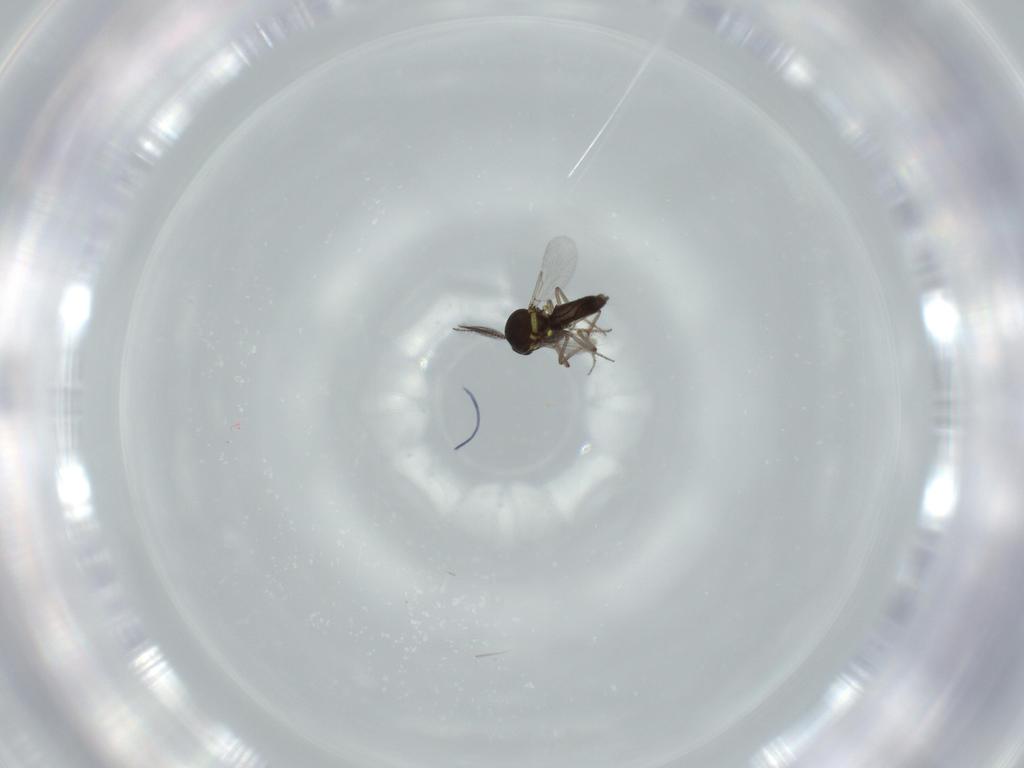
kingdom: Animalia
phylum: Arthropoda
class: Insecta
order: Diptera
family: Ceratopogonidae
